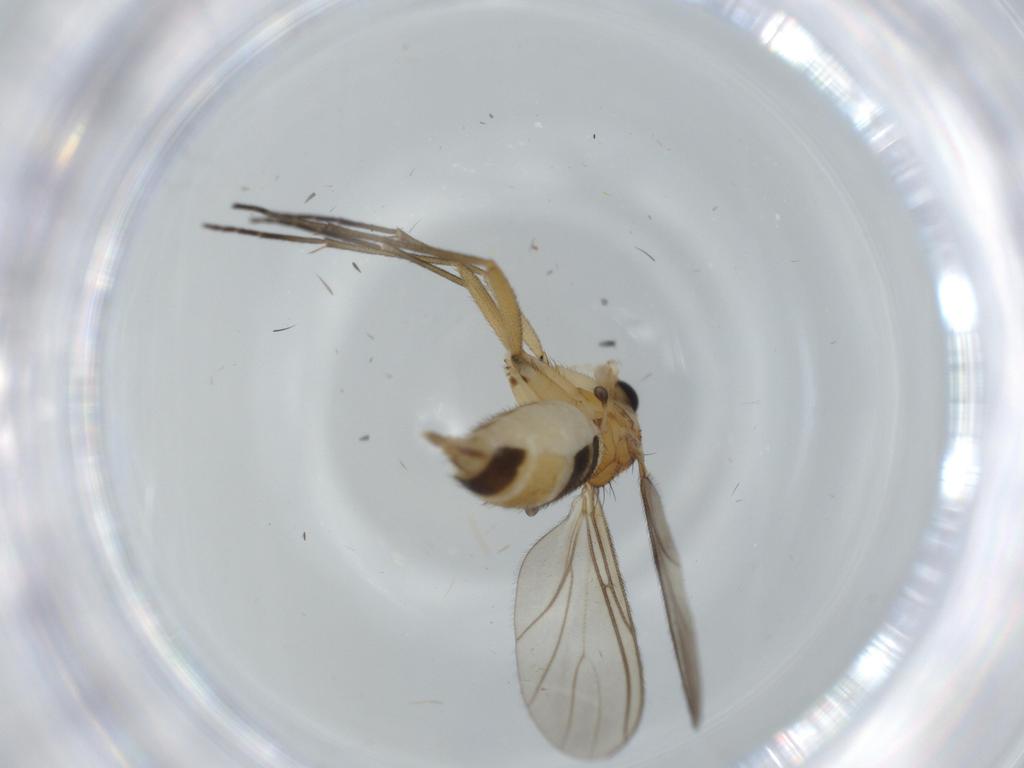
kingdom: Animalia
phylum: Arthropoda
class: Insecta
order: Diptera
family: Sciaridae
